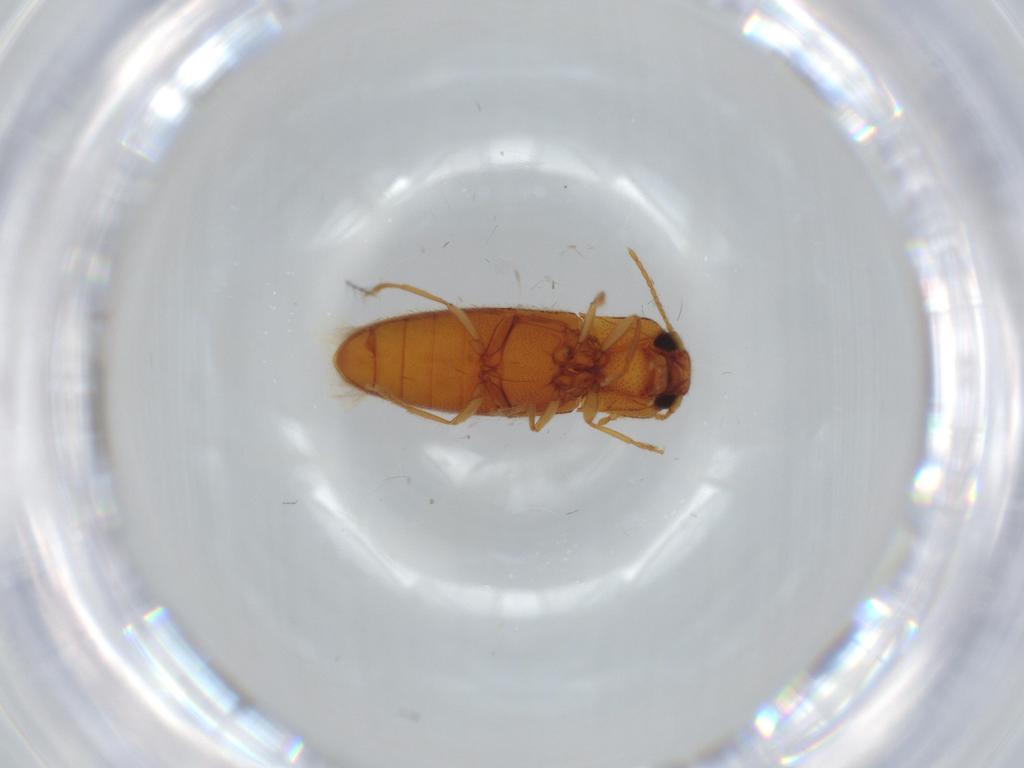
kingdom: Animalia
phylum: Arthropoda
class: Insecta
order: Coleoptera
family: Elateridae
